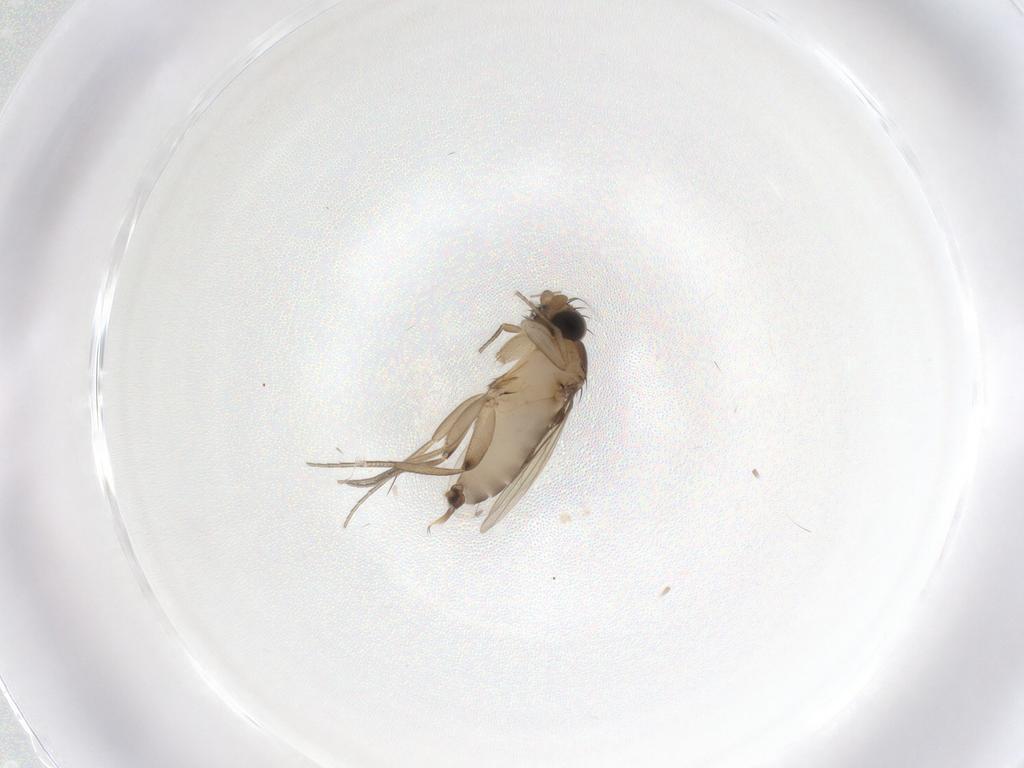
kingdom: Animalia
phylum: Arthropoda
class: Insecta
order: Diptera
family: Phoridae
